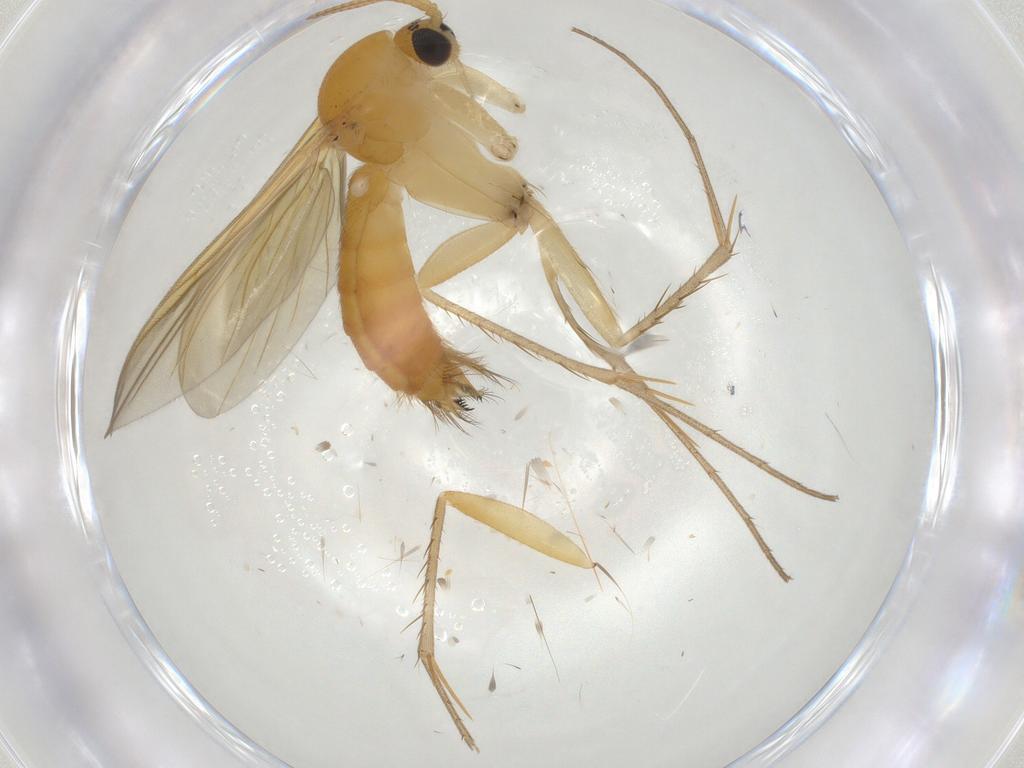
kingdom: Animalia
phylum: Arthropoda
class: Insecta
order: Diptera
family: Mycetophilidae
